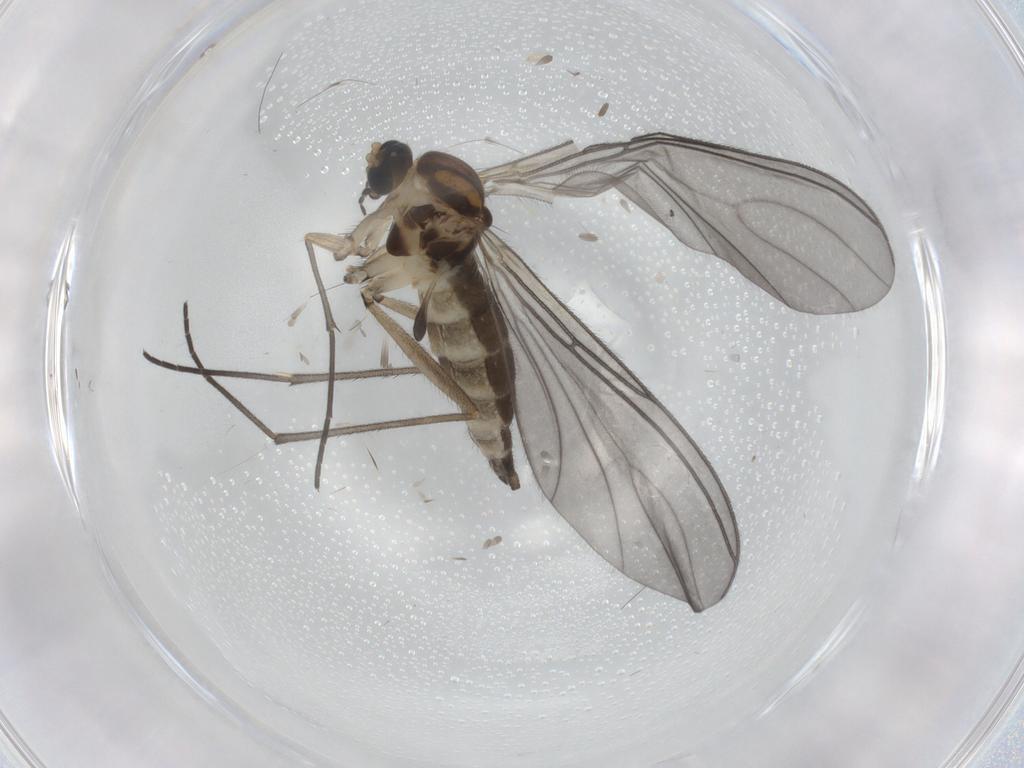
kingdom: Animalia
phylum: Arthropoda
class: Insecta
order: Diptera
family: Sciaridae
